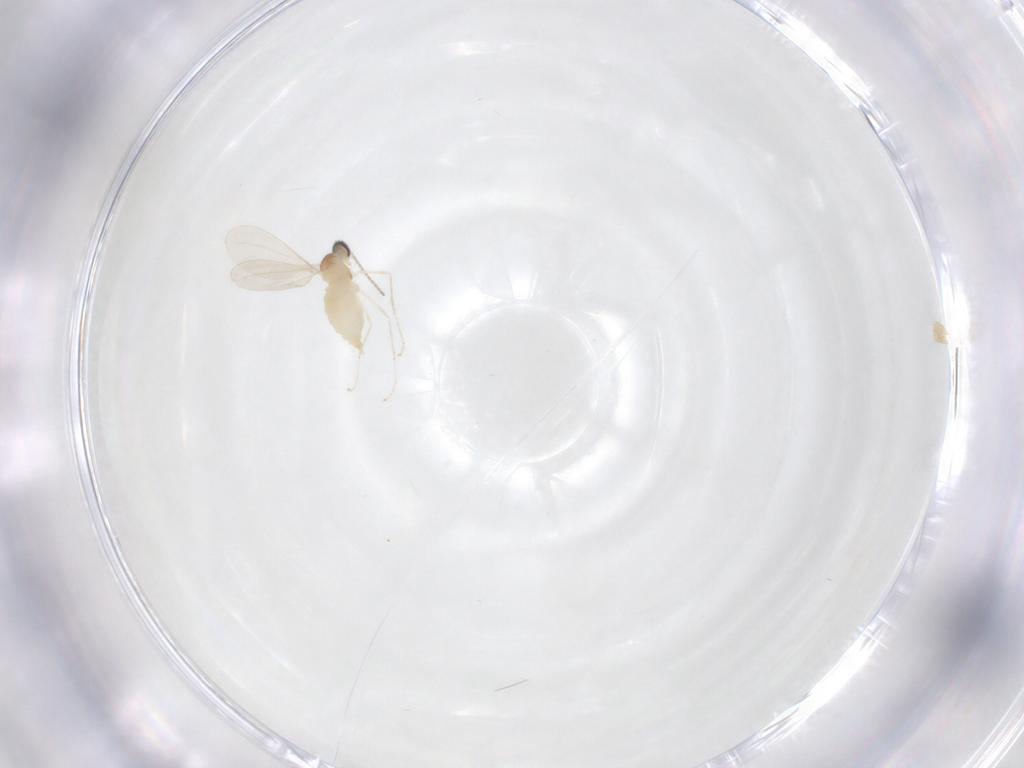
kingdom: Animalia
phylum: Arthropoda
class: Insecta
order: Diptera
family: Cecidomyiidae
